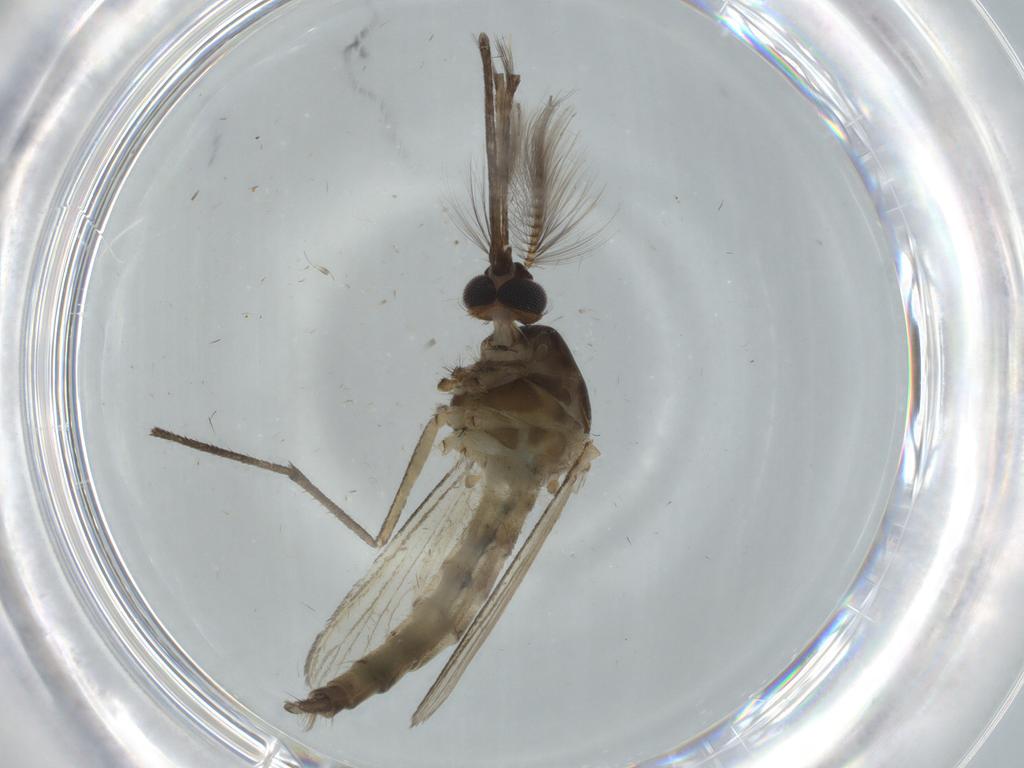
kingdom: Animalia
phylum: Arthropoda
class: Insecta
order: Diptera
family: Culicidae
